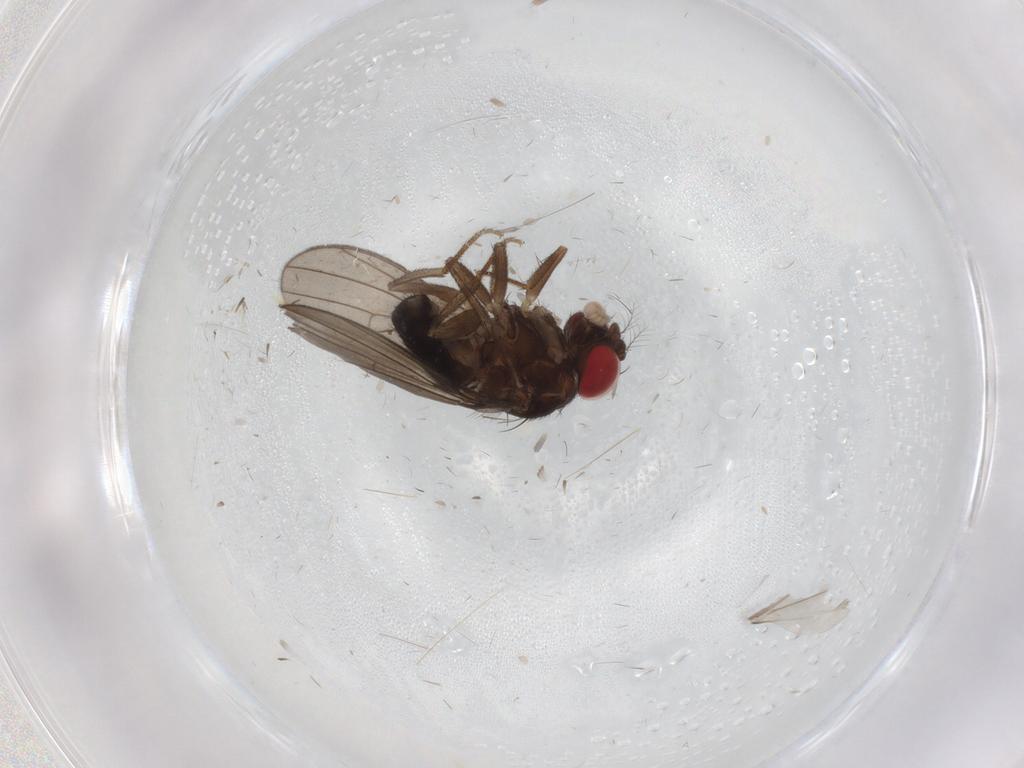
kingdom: Animalia
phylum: Arthropoda
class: Insecta
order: Diptera
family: Drosophilidae
